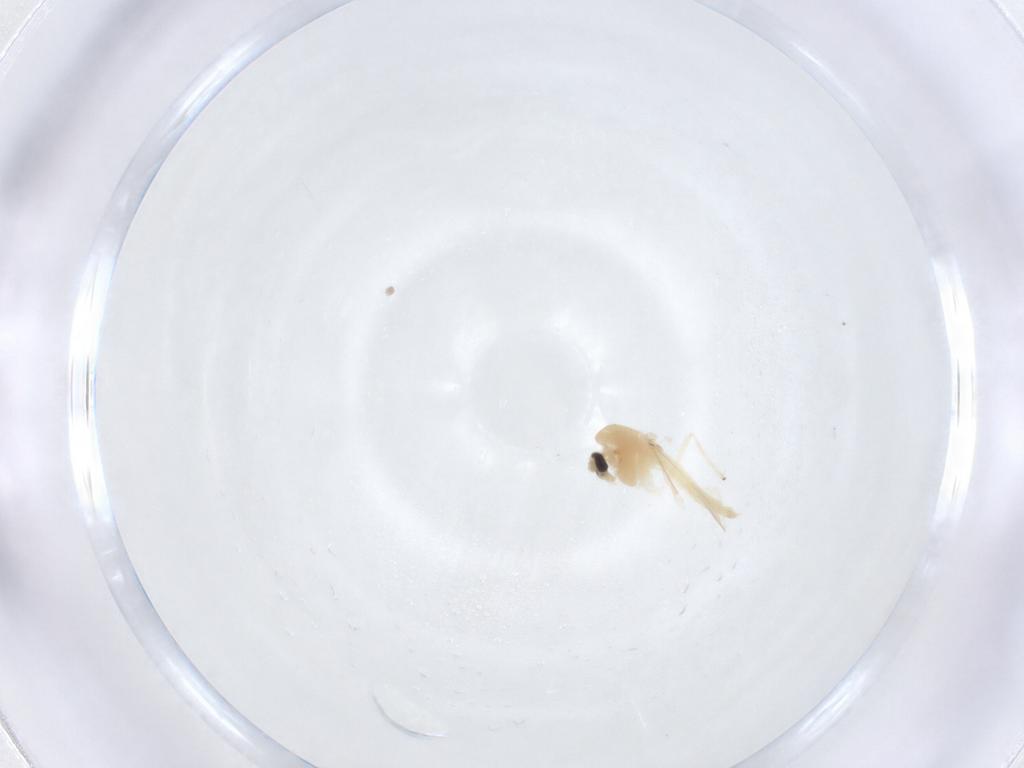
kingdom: Animalia
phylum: Arthropoda
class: Insecta
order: Diptera
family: Chironomidae
